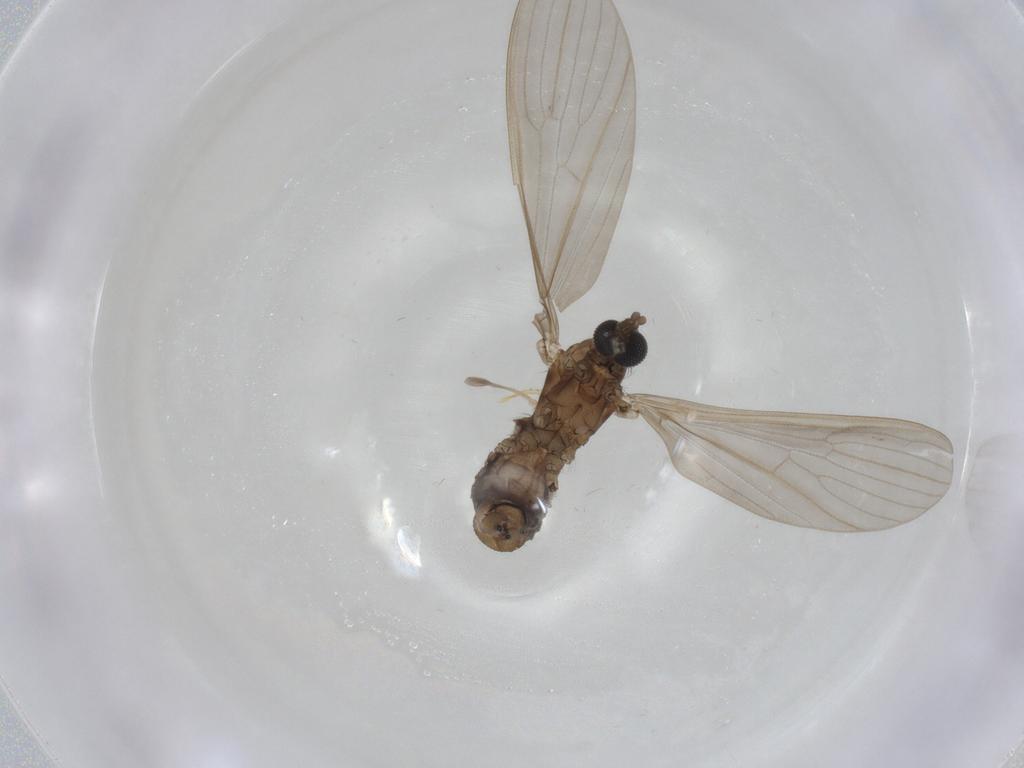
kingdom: Animalia
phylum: Arthropoda
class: Insecta
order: Diptera
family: Limoniidae
